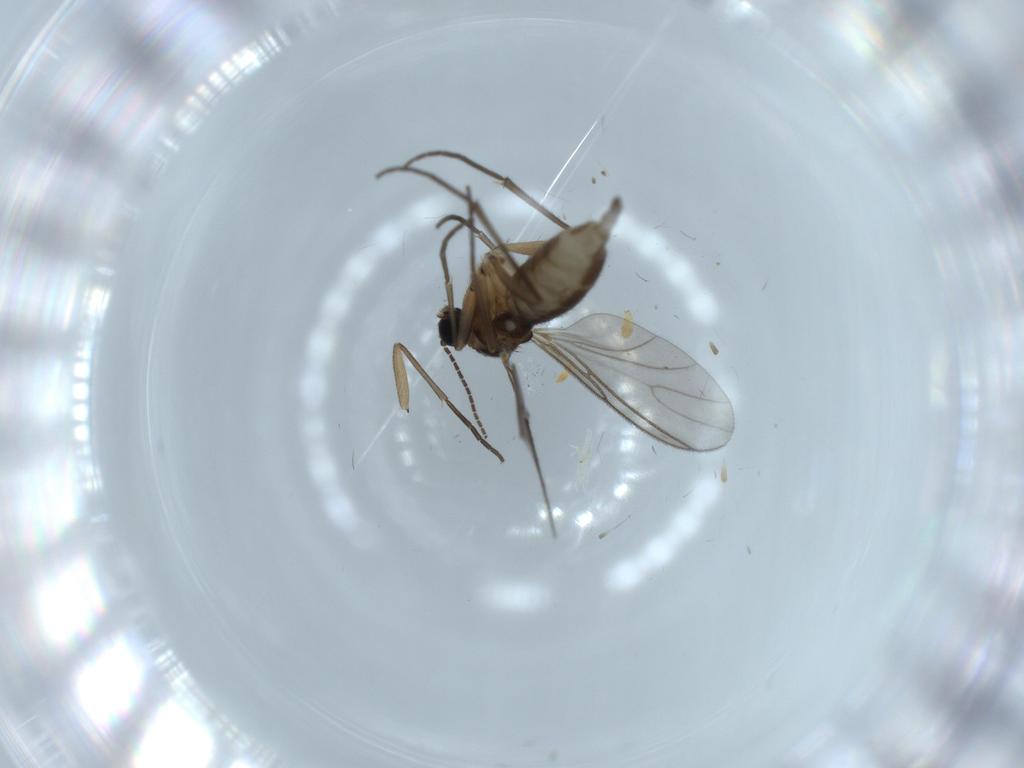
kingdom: Animalia
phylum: Arthropoda
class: Insecta
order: Diptera
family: Sciaridae
